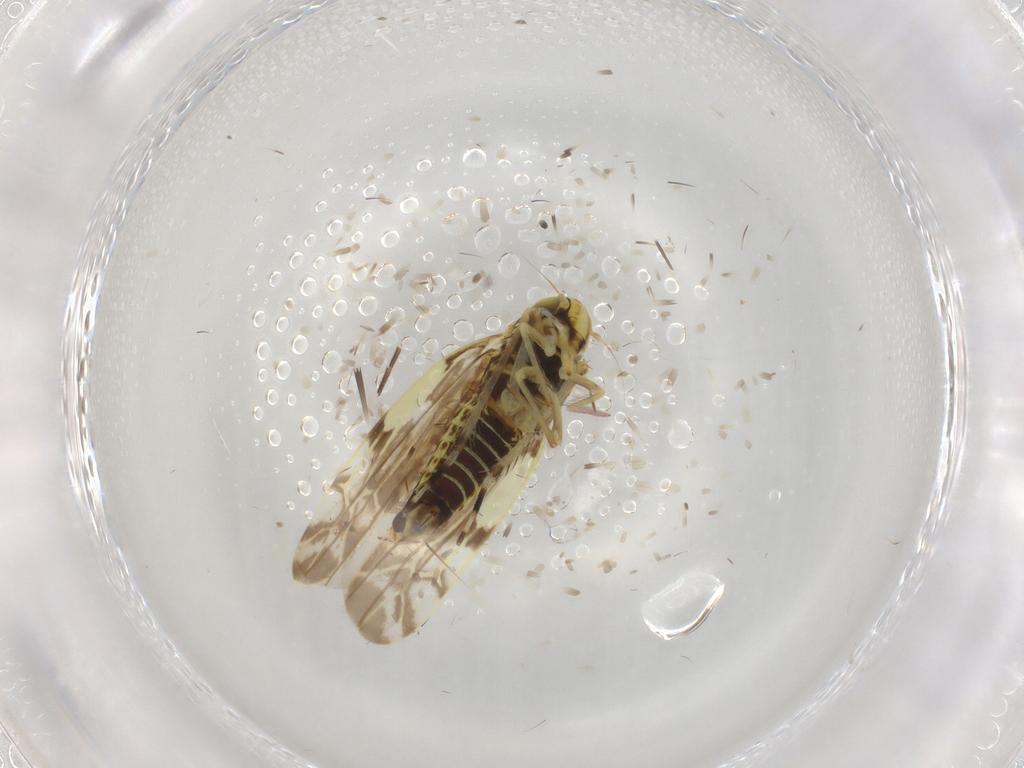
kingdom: Animalia
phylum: Arthropoda
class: Insecta
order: Hemiptera
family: Cicadellidae
